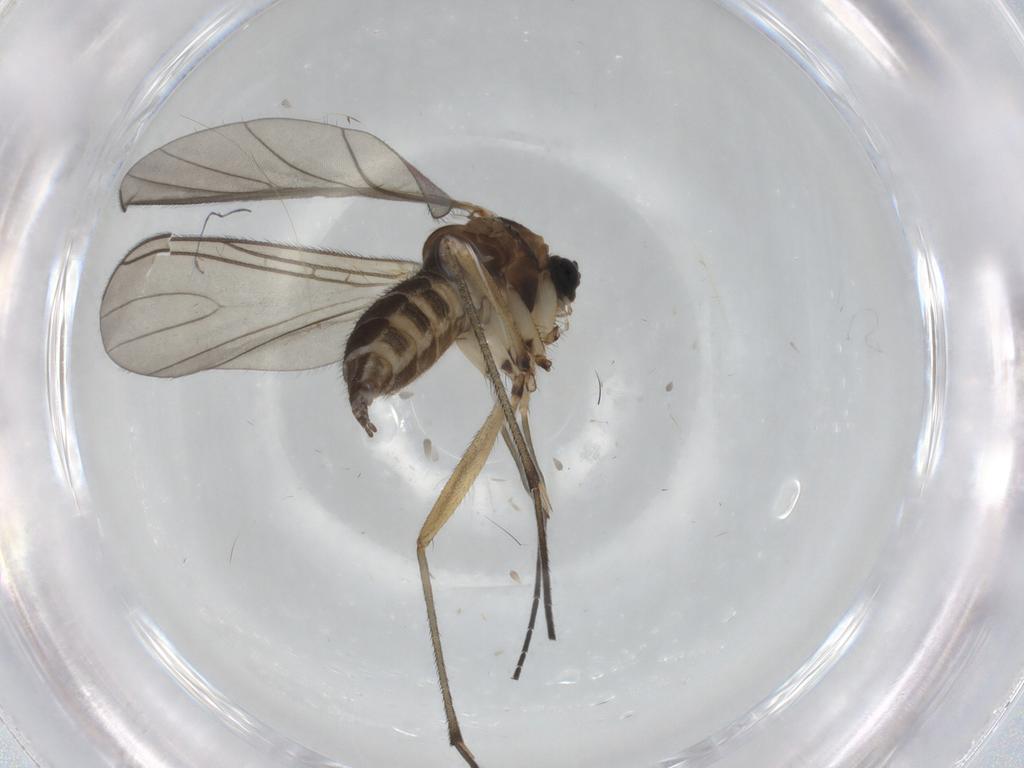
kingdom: Animalia
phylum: Arthropoda
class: Insecta
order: Diptera
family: Sciaridae
